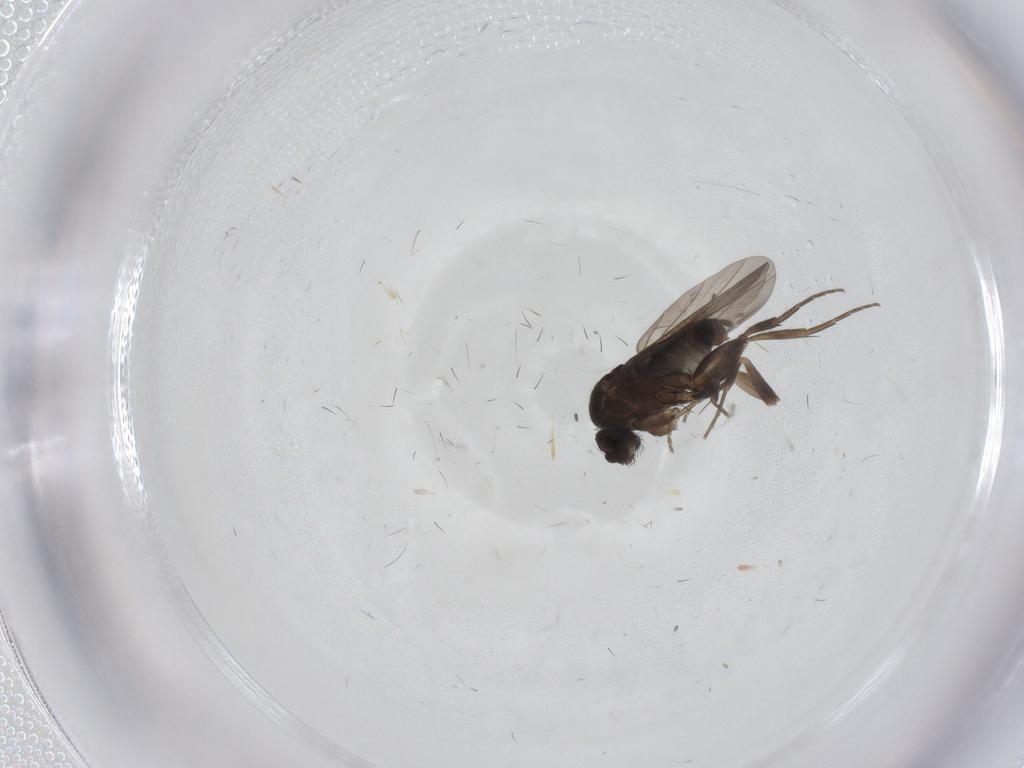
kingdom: Animalia
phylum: Arthropoda
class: Insecta
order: Diptera
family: Phoridae
